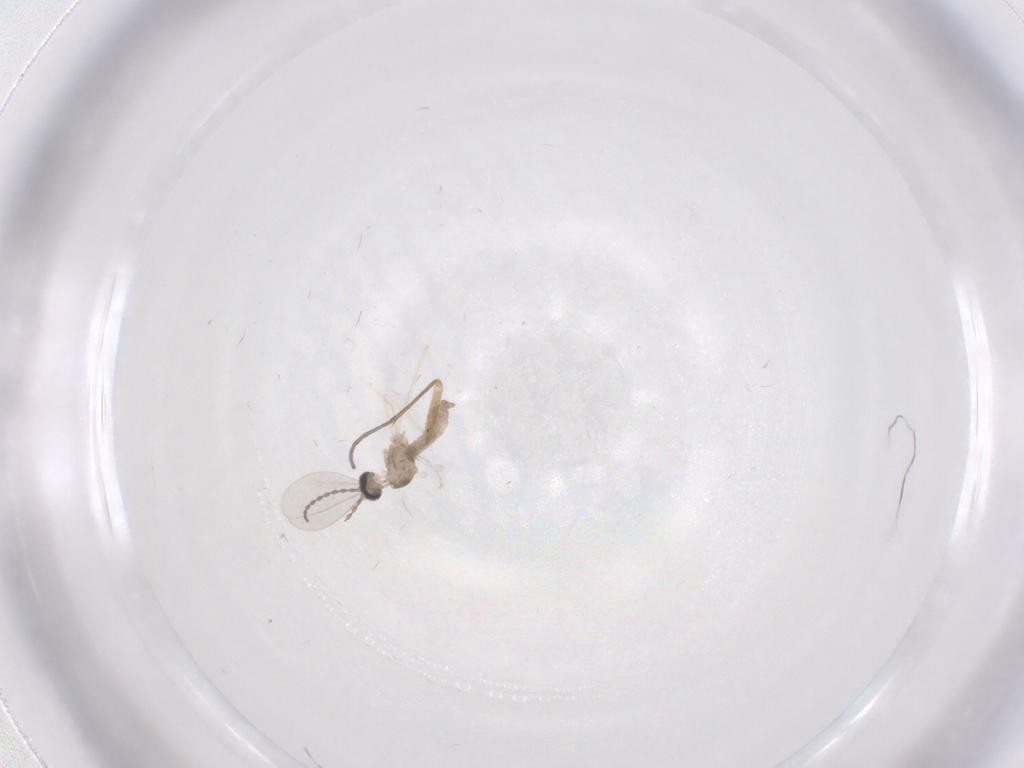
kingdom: Animalia
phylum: Arthropoda
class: Insecta
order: Diptera
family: Cecidomyiidae
